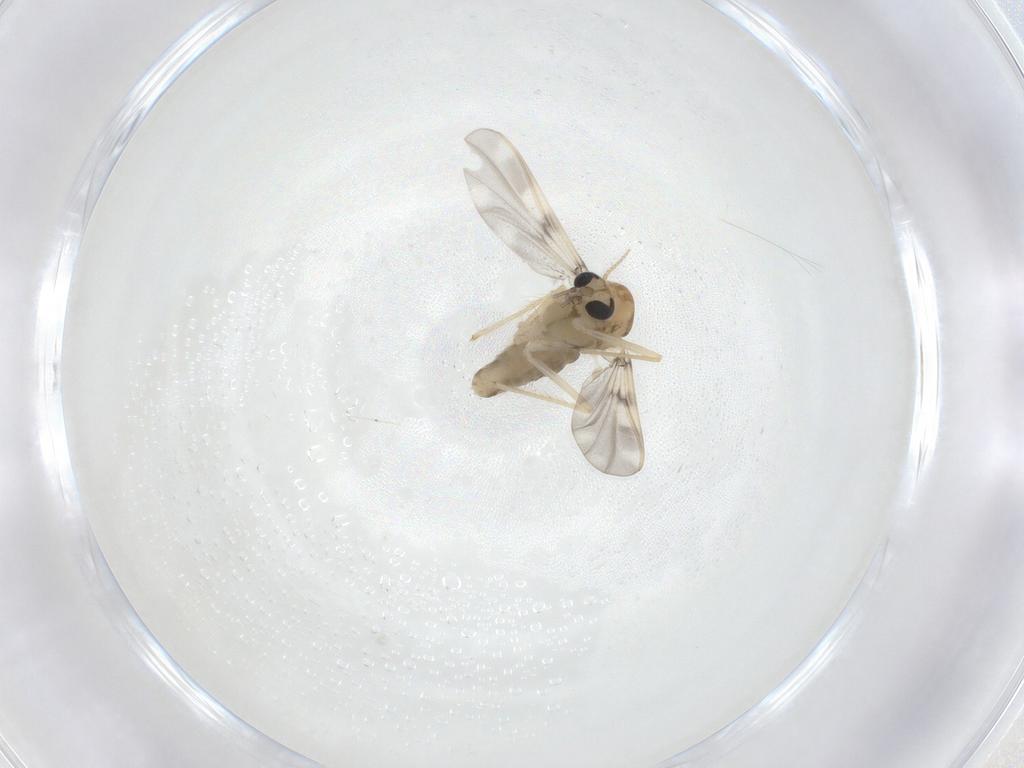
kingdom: Animalia
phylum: Arthropoda
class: Insecta
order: Diptera
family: Chironomidae
